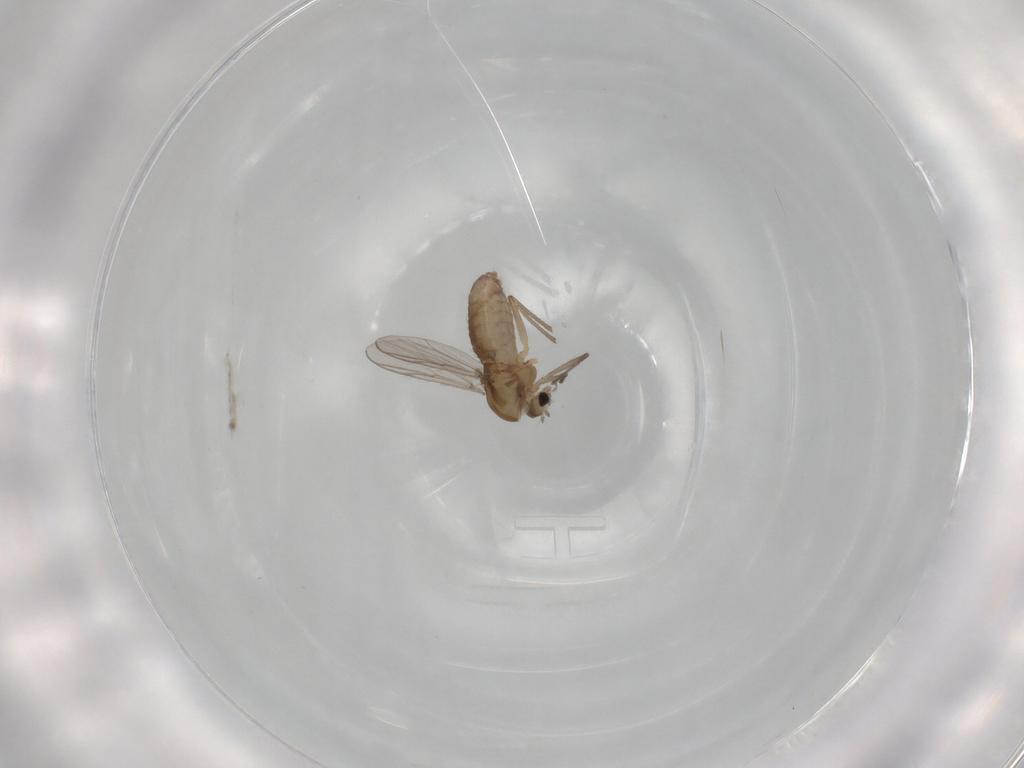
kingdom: Animalia
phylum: Arthropoda
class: Insecta
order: Diptera
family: Chironomidae
